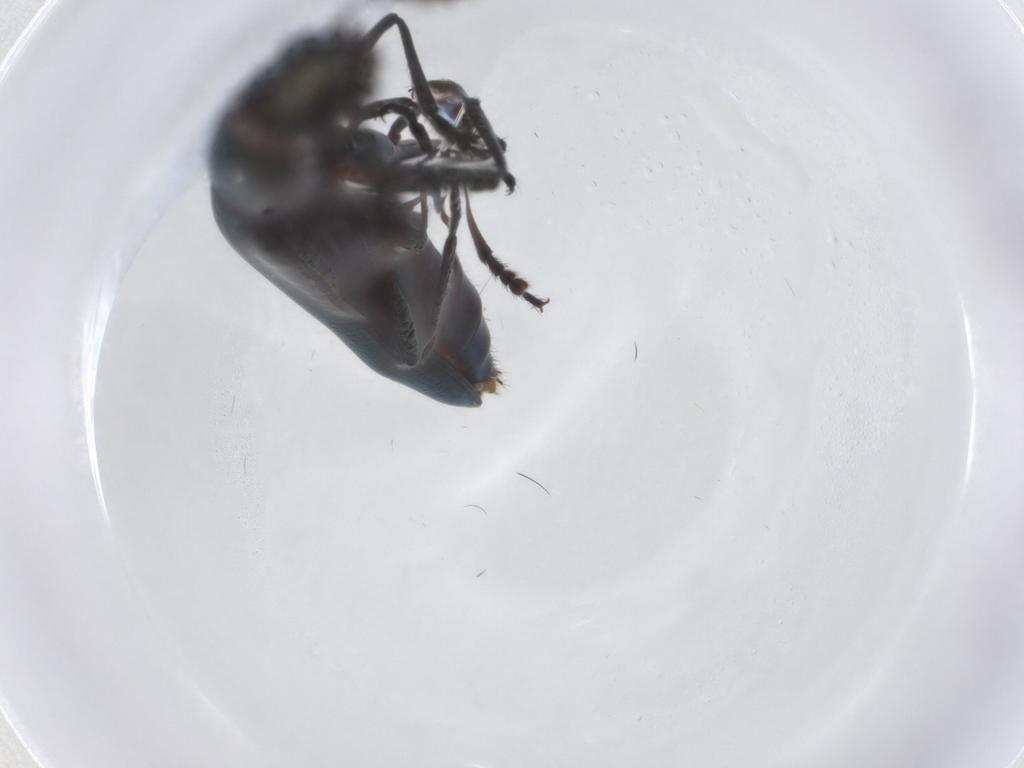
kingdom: Animalia
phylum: Arthropoda
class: Insecta
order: Coleoptera
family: Erotylidae
